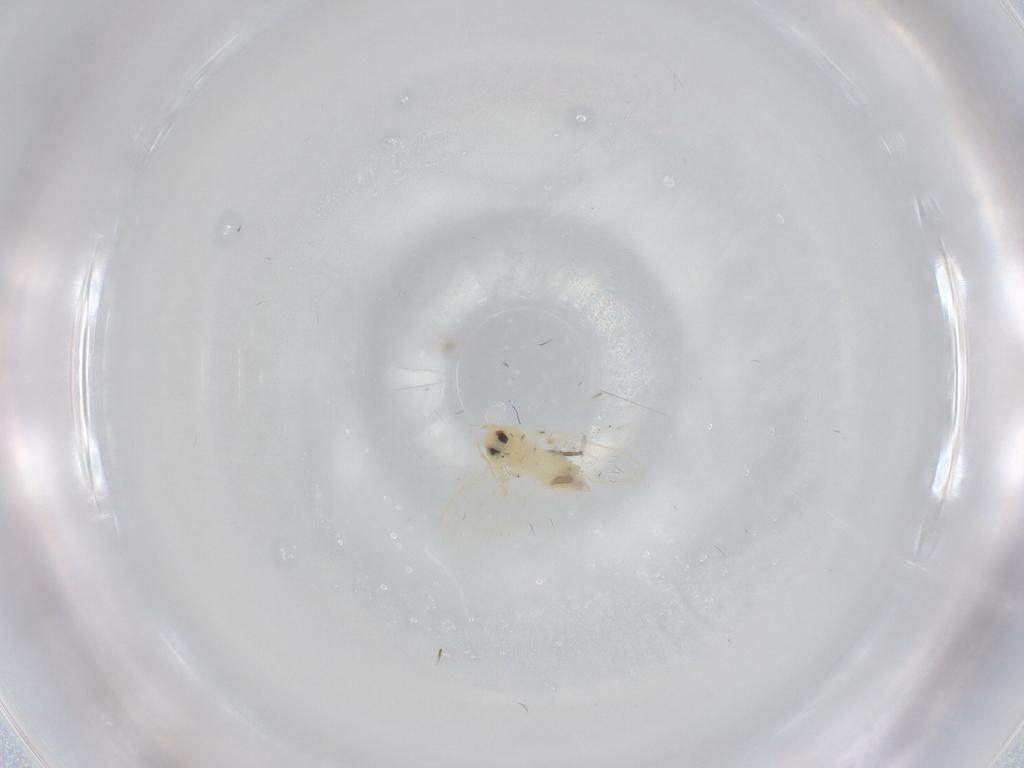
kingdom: Animalia
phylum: Arthropoda
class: Insecta
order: Hemiptera
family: Aleyrodidae
